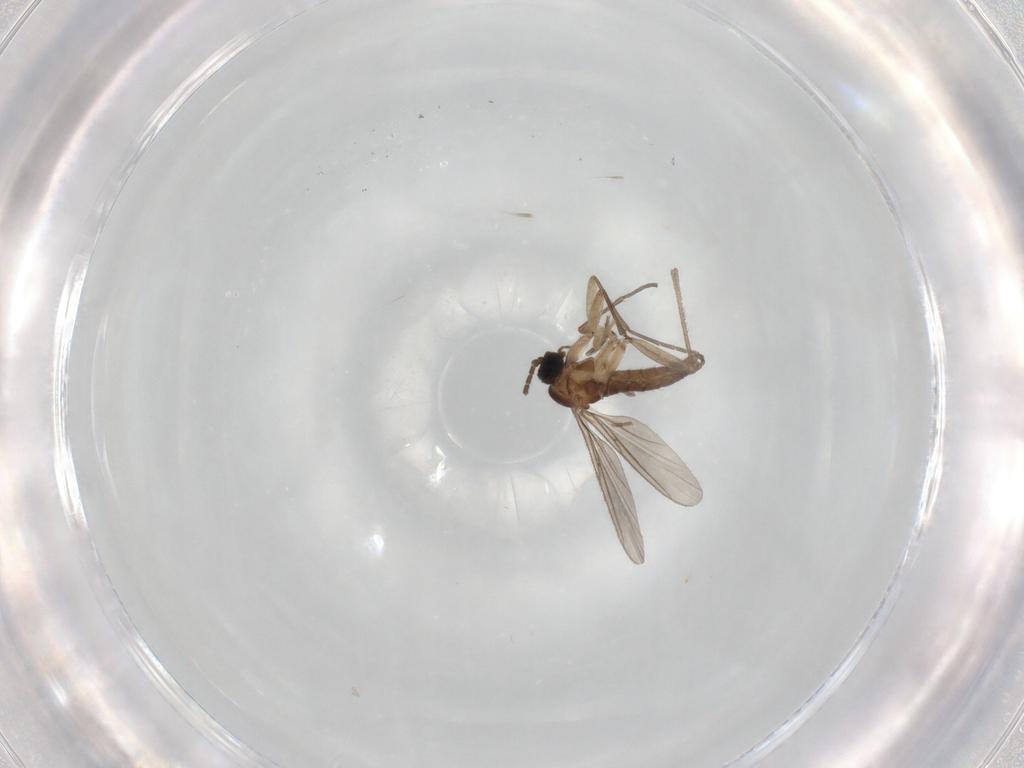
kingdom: Animalia
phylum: Arthropoda
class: Insecta
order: Diptera
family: Sciaridae
